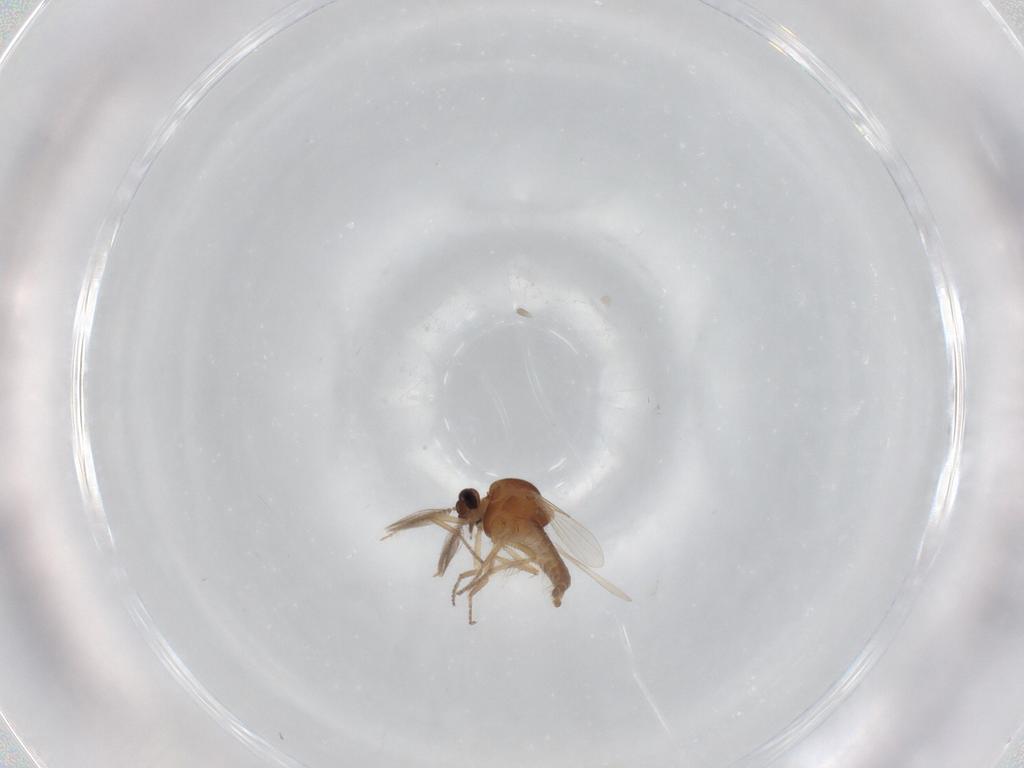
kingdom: Animalia
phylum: Arthropoda
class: Insecta
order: Diptera
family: Ceratopogonidae
